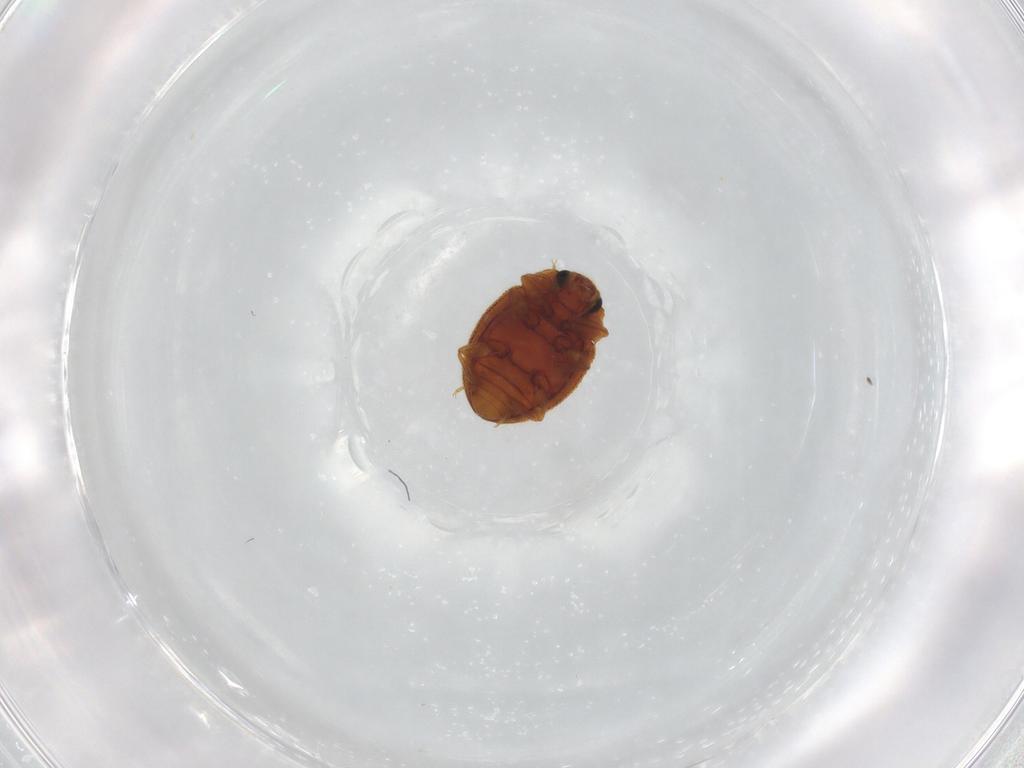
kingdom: Animalia
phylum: Arthropoda
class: Insecta
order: Coleoptera
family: Euxestidae
